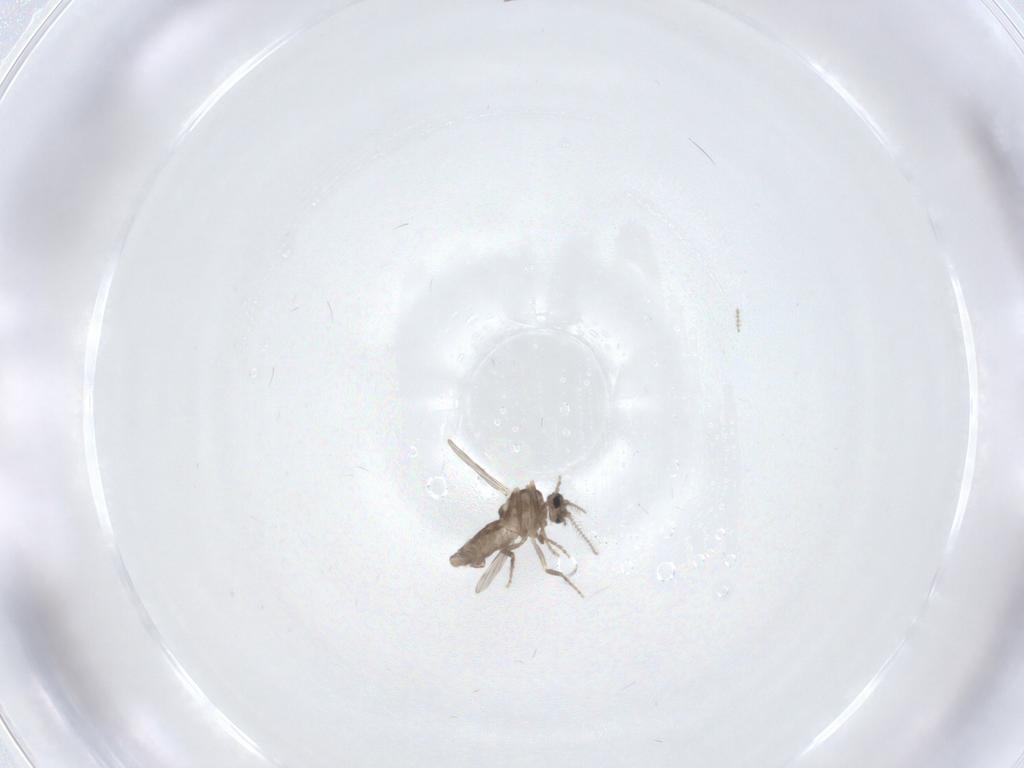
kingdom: Animalia
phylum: Arthropoda
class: Insecta
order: Diptera
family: Ceratopogonidae
